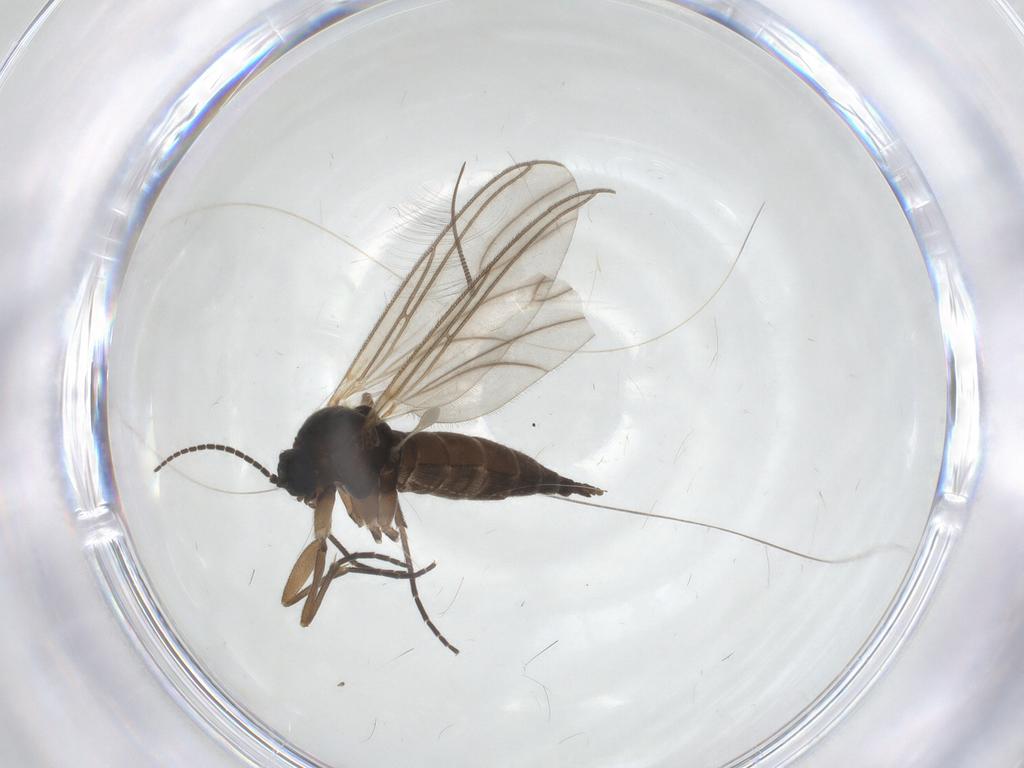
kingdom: Animalia
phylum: Arthropoda
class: Insecta
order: Diptera
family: Sciaridae
